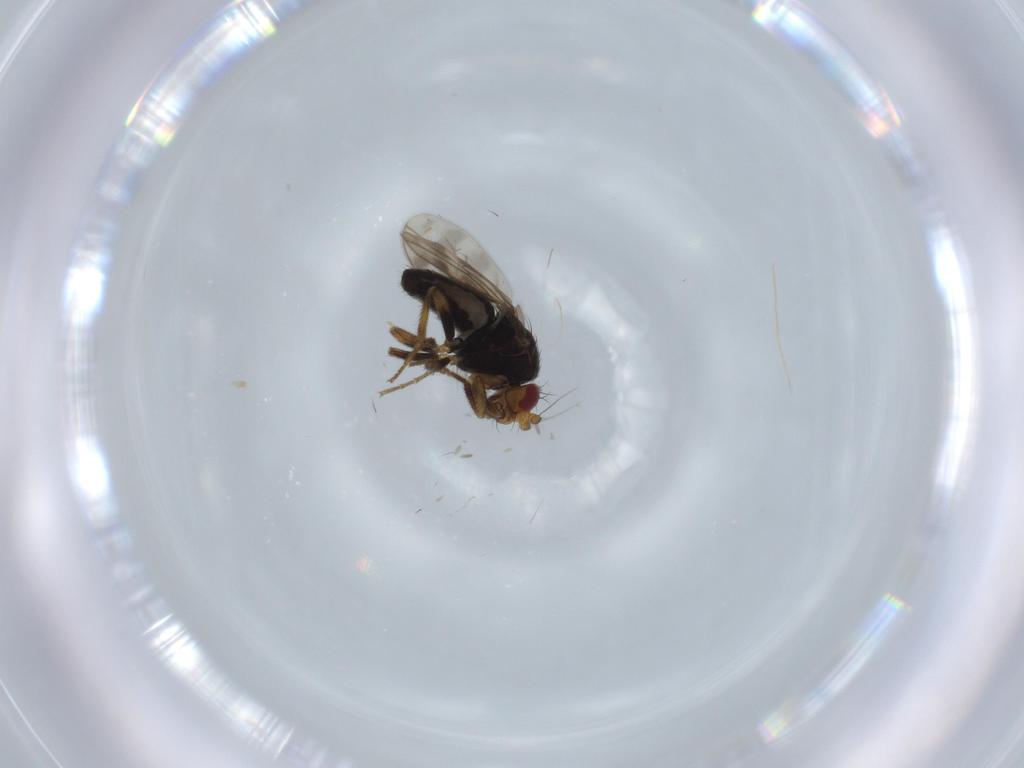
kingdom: Animalia
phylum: Arthropoda
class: Insecta
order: Diptera
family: Sphaeroceridae
